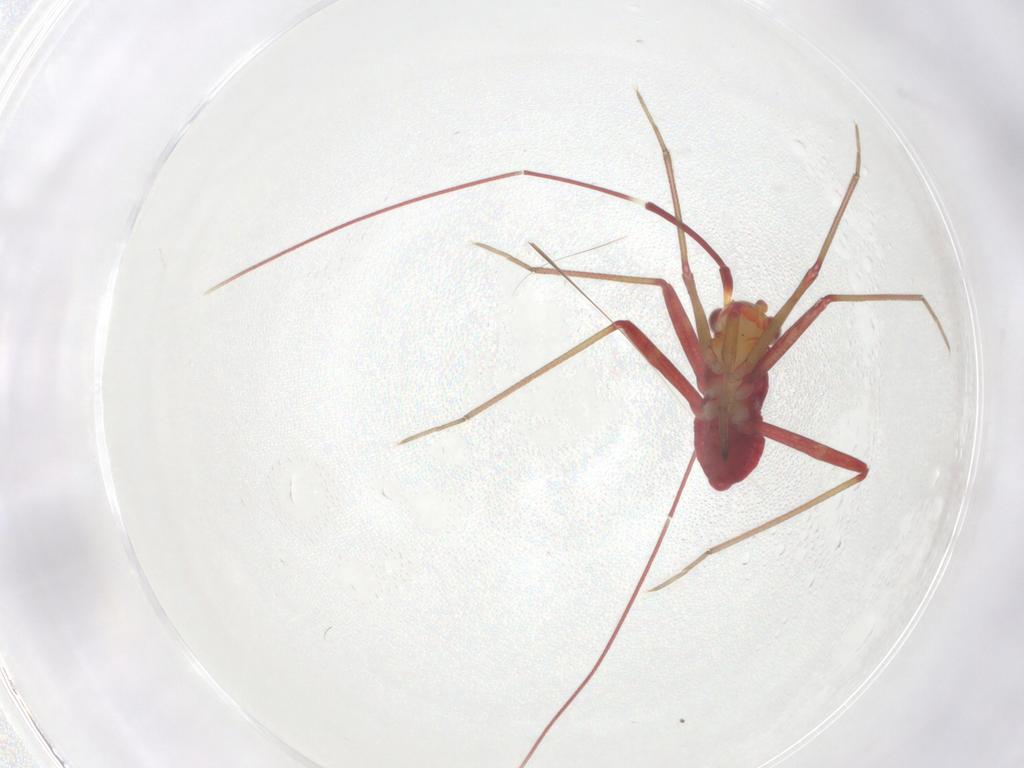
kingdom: Animalia
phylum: Arthropoda
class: Insecta
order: Hemiptera
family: Miridae
